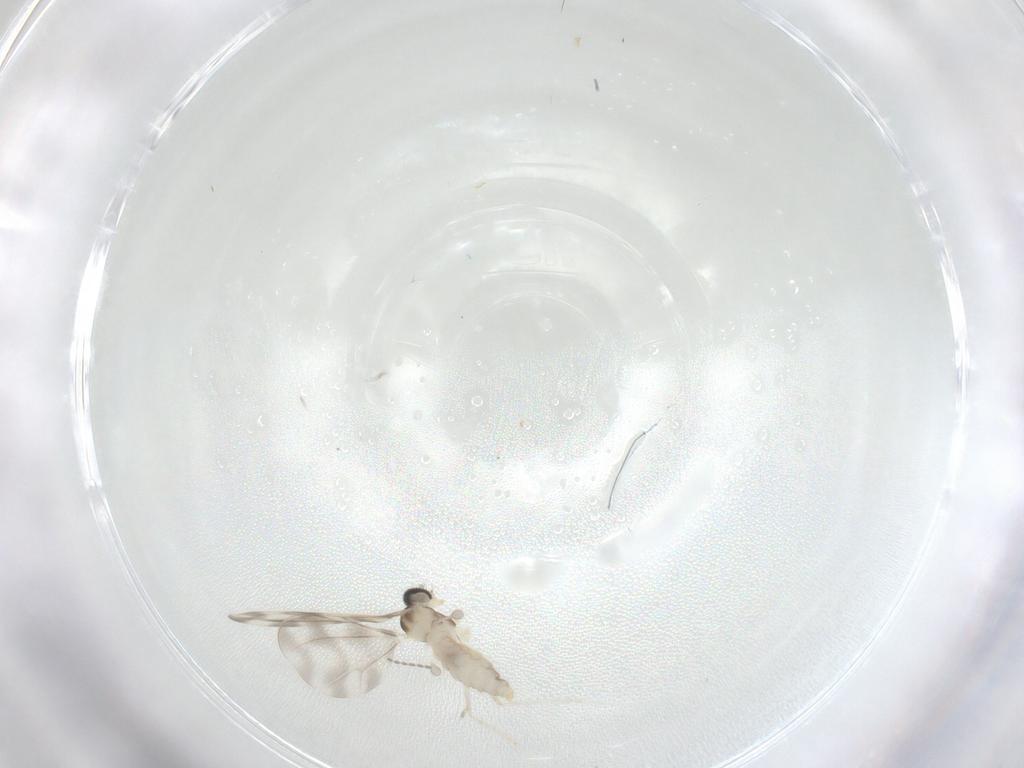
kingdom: Animalia
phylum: Arthropoda
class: Insecta
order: Diptera
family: Cecidomyiidae
